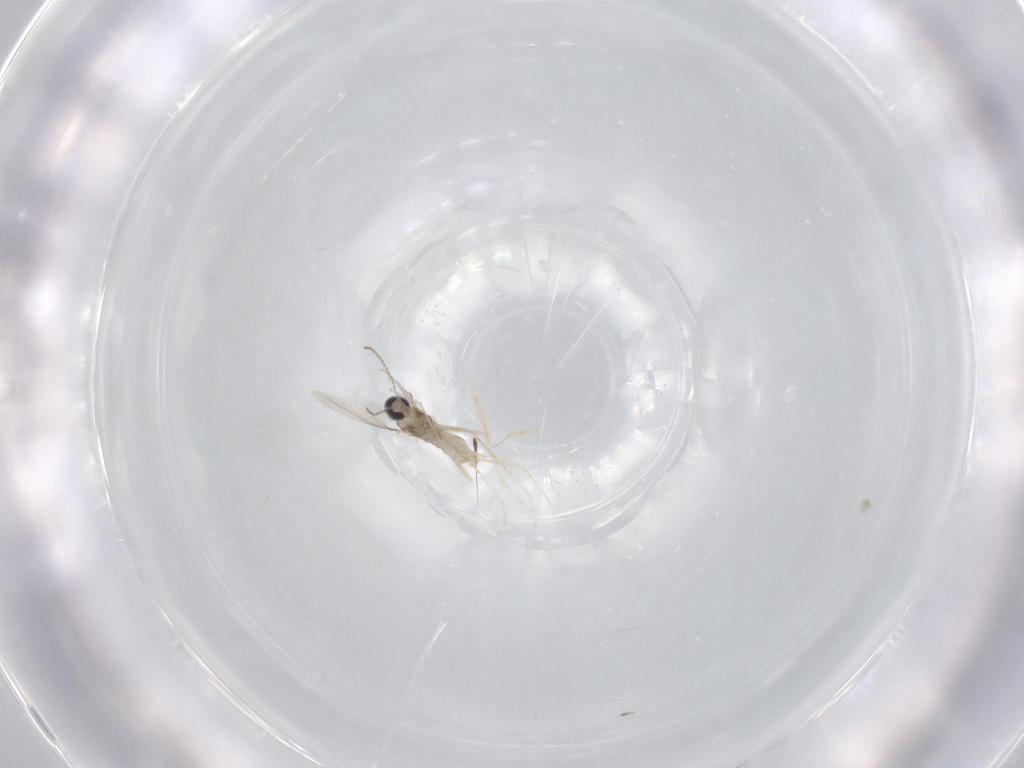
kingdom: Animalia
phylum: Arthropoda
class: Insecta
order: Diptera
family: Cecidomyiidae
